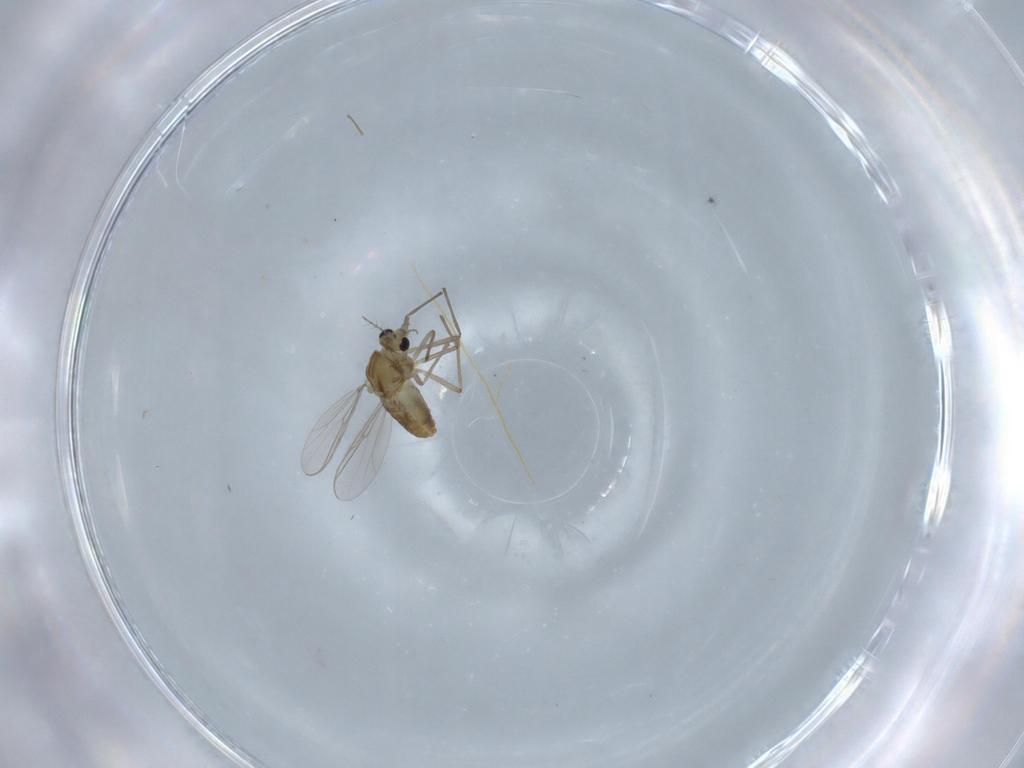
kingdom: Animalia
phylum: Arthropoda
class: Insecta
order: Diptera
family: Chironomidae
